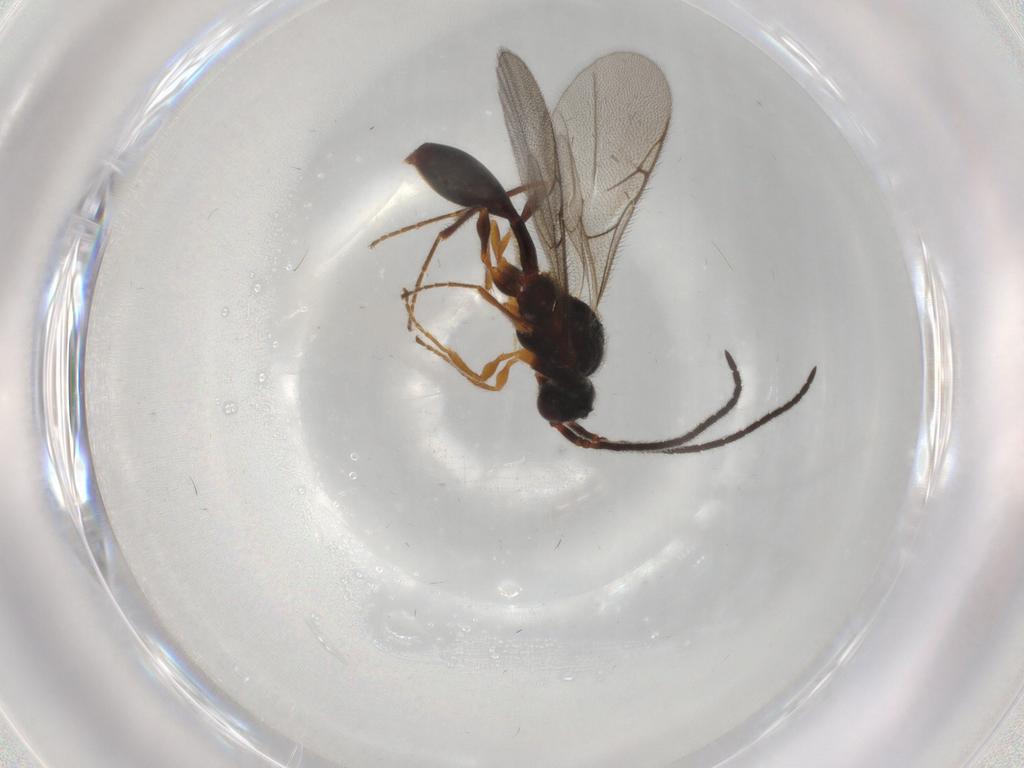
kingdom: Animalia
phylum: Arthropoda
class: Insecta
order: Hymenoptera
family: Diapriidae
